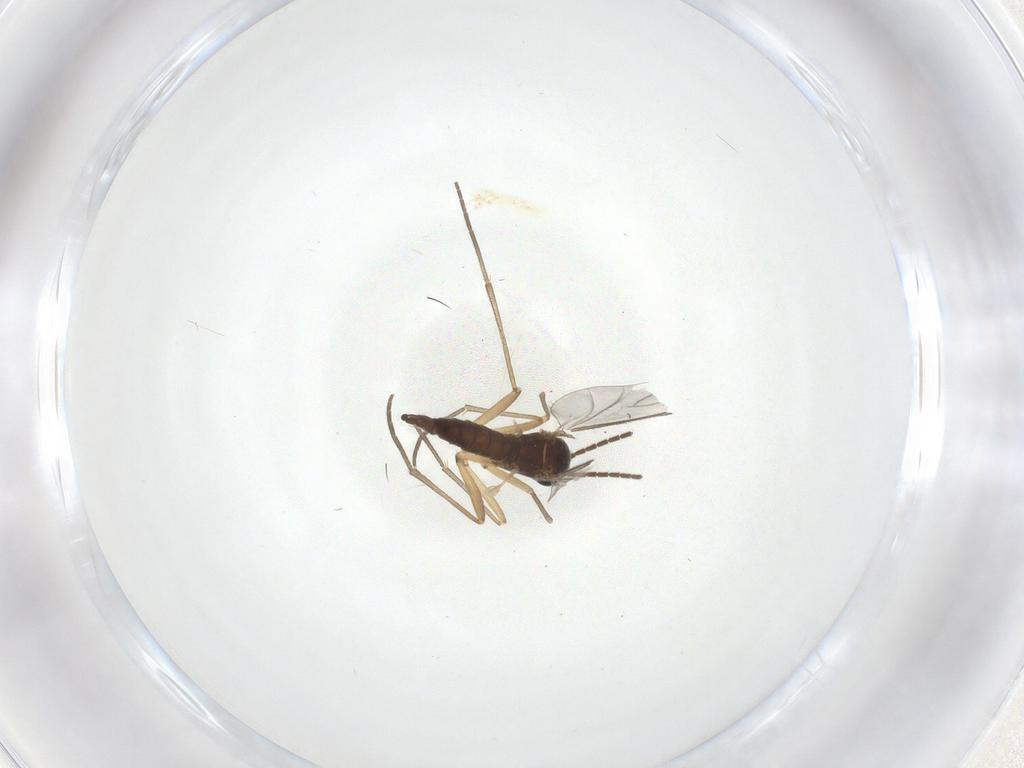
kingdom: Animalia
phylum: Arthropoda
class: Insecta
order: Diptera
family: Sciaridae
